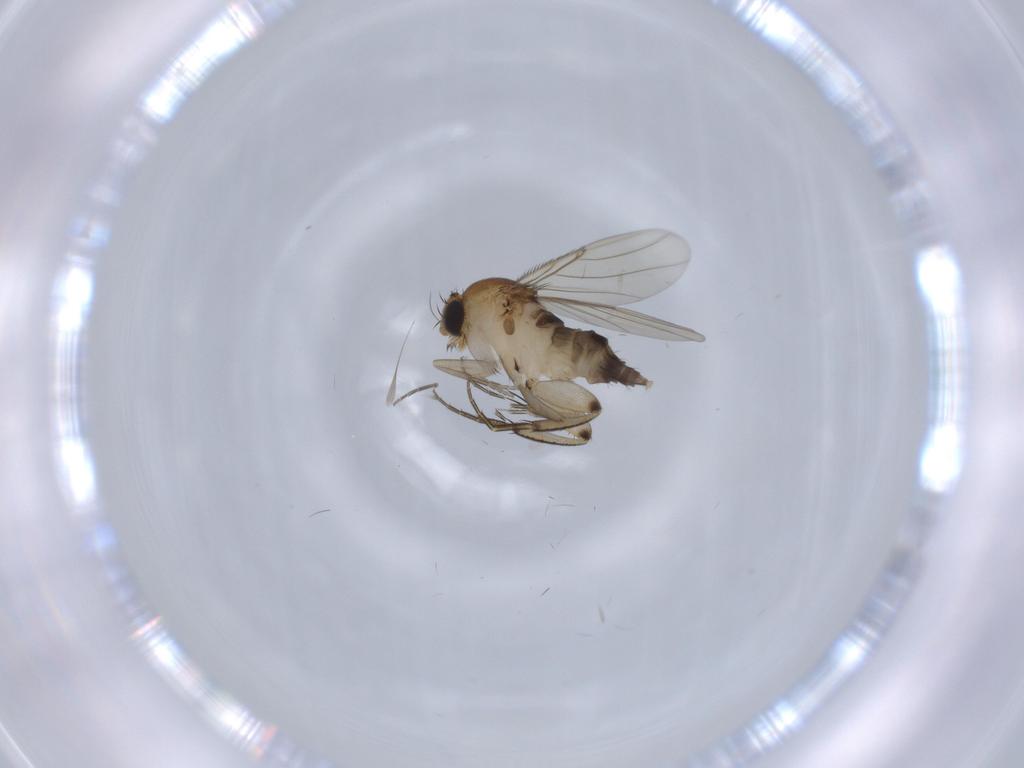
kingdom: Animalia
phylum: Arthropoda
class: Insecta
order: Diptera
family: Phoridae
